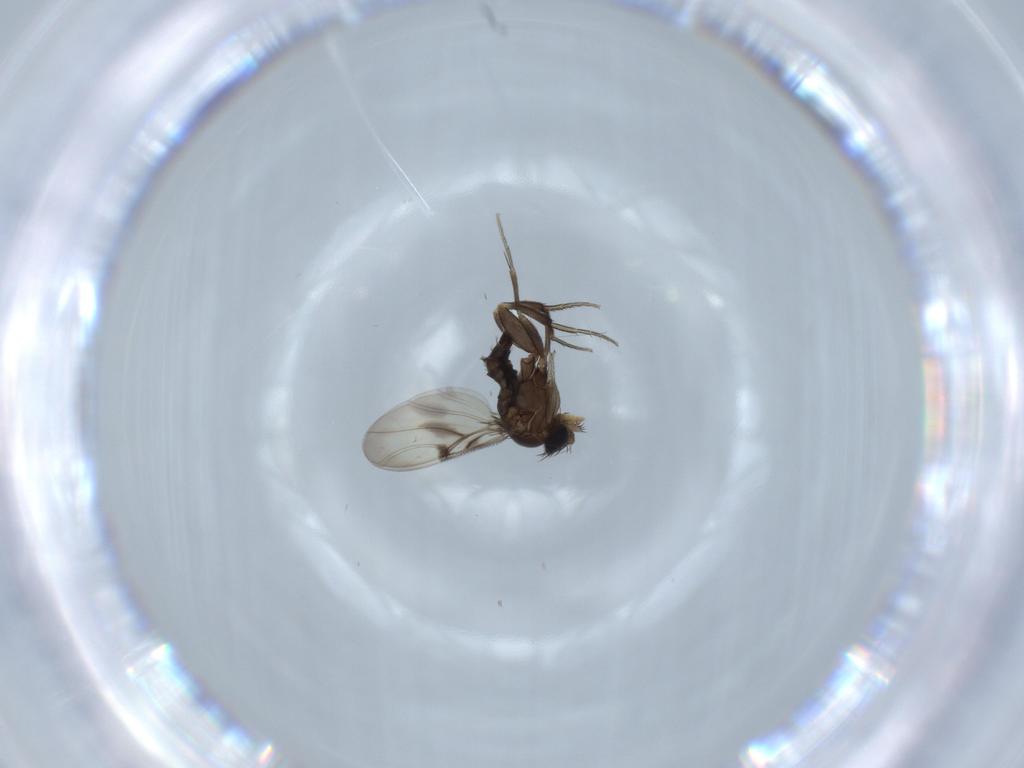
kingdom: Animalia
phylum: Arthropoda
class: Insecta
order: Diptera
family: Phoridae
